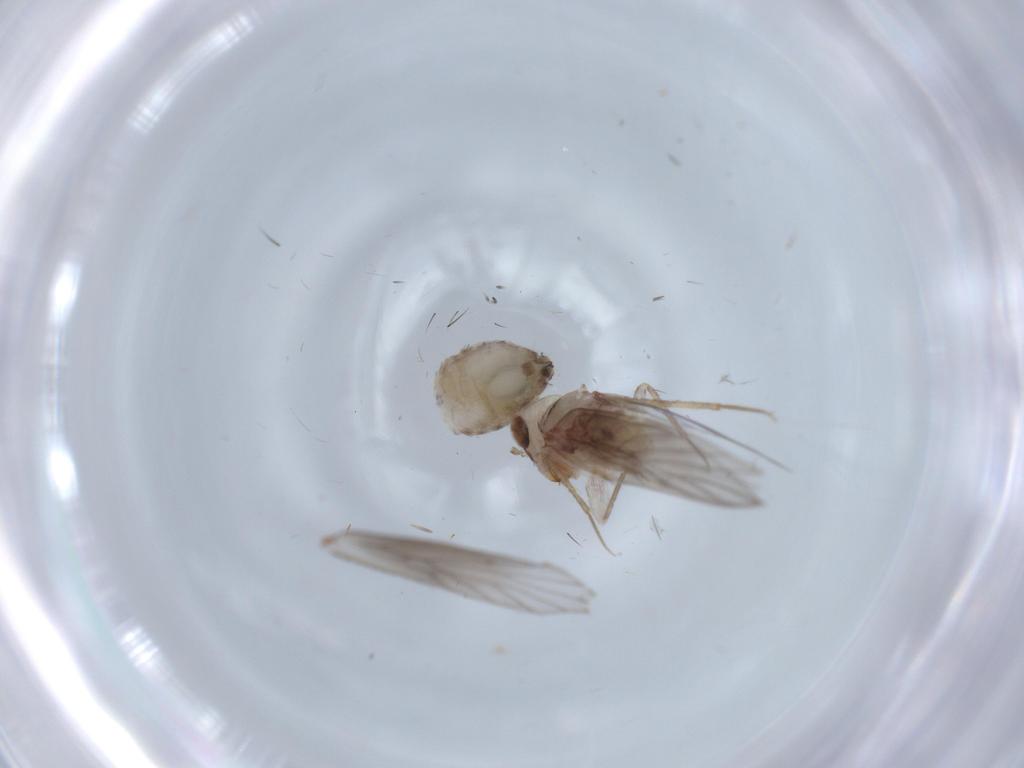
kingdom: Animalia
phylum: Arthropoda
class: Insecta
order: Psocodea
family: Lepidopsocidae
